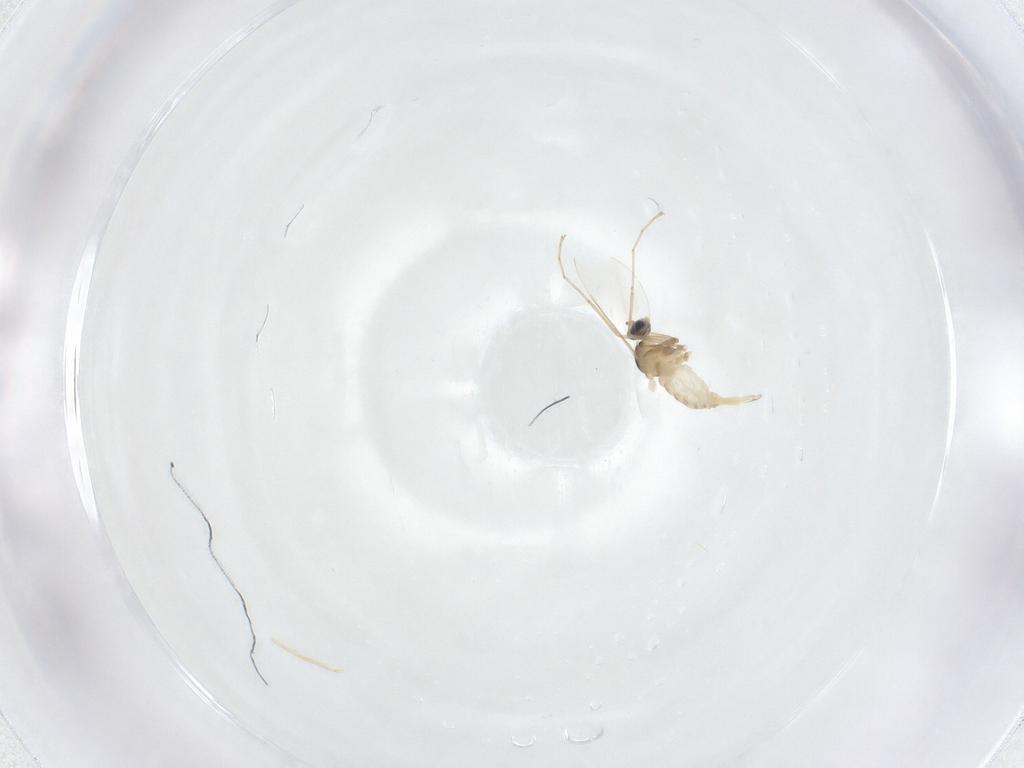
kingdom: Animalia
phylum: Arthropoda
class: Insecta
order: Diptera
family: Cecidomyiidae
